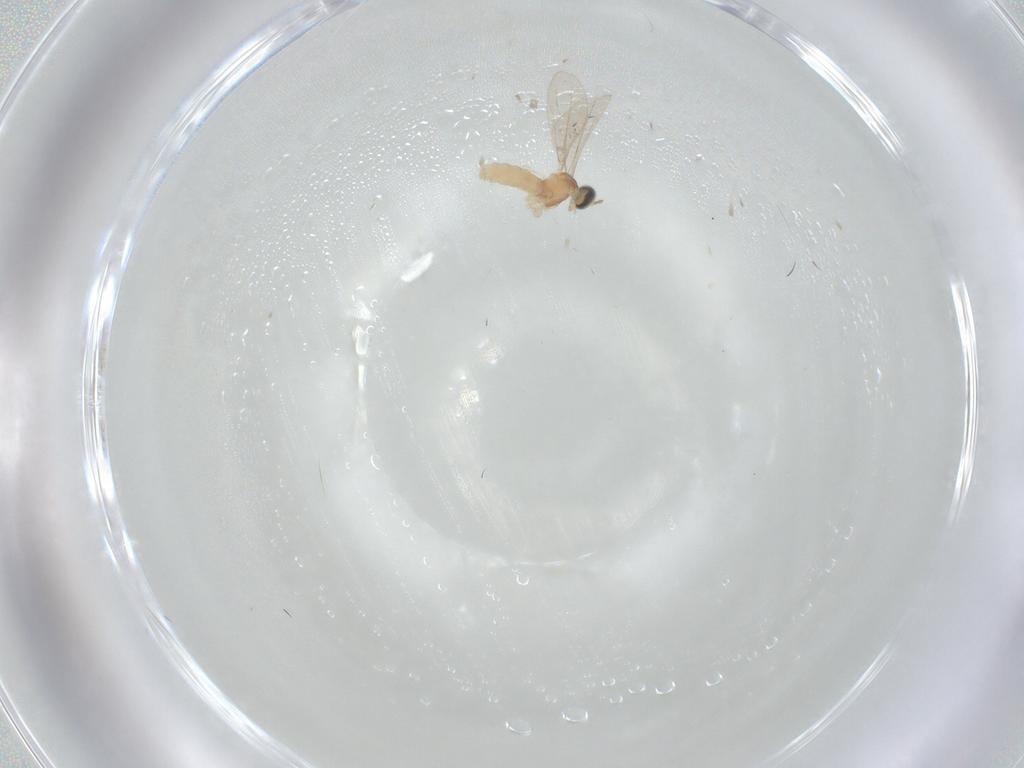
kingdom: Animalia
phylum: Arthropoda
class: Insecta
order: Diptera
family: Cecidomyiidae
